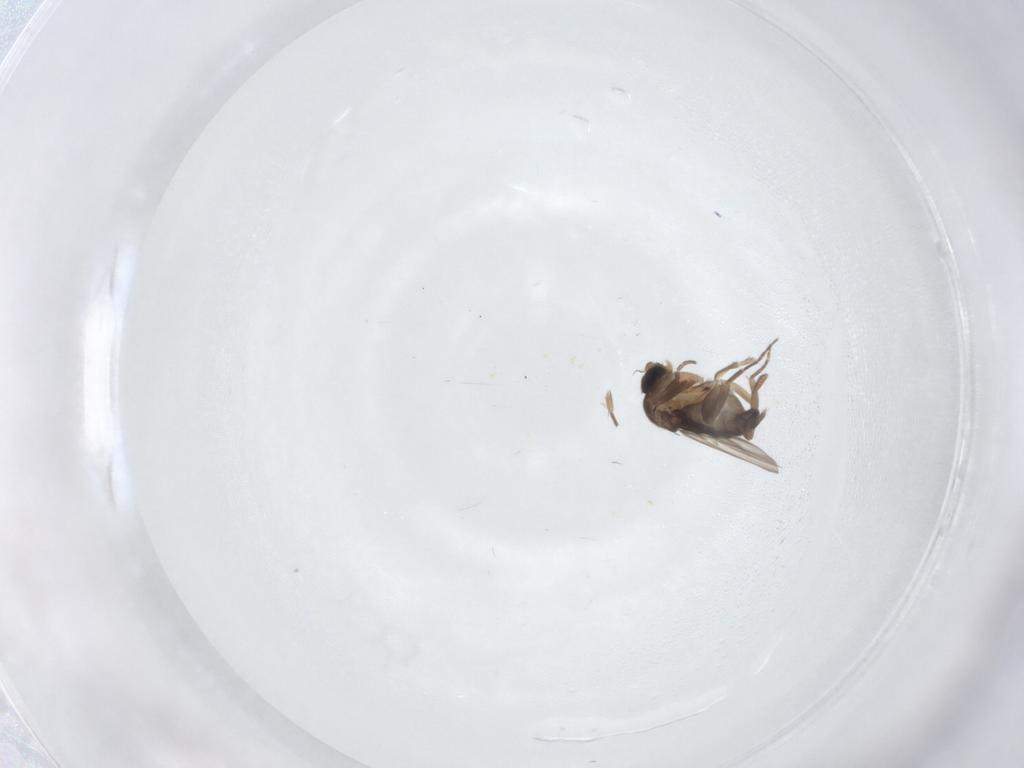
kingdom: Animalia
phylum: Arthropoda
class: Insecta
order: Diptera
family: Phoridae
